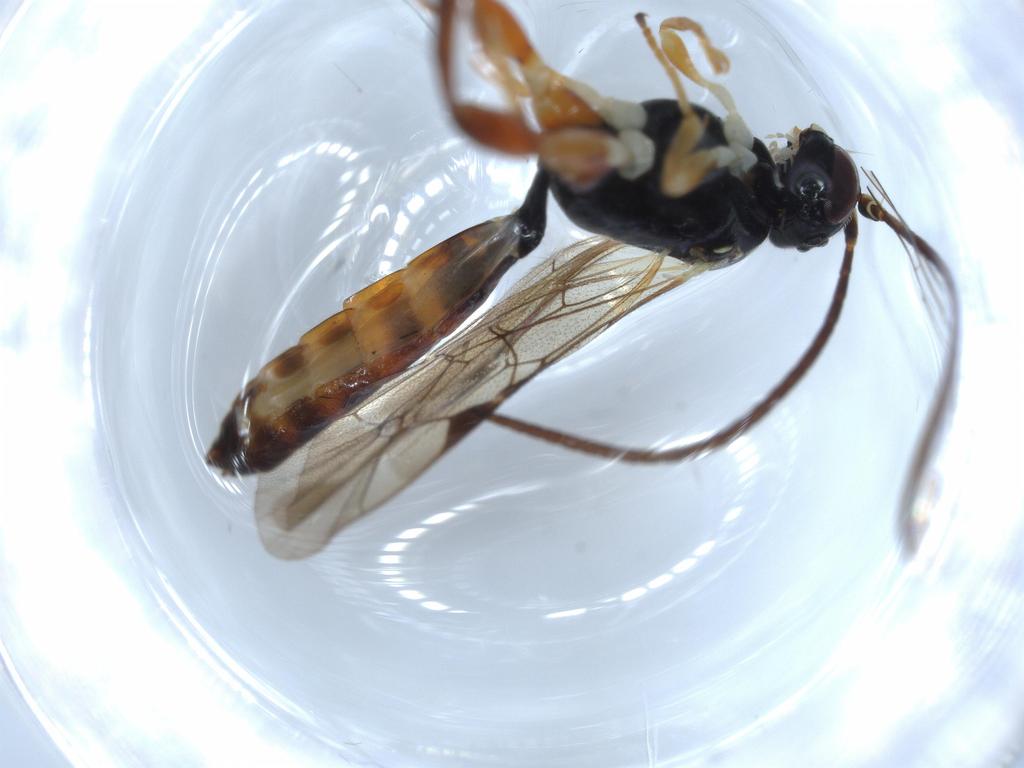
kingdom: Animalia
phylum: Arthropoda
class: Insecta
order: Hymenoptera
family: Ichneumonidae
